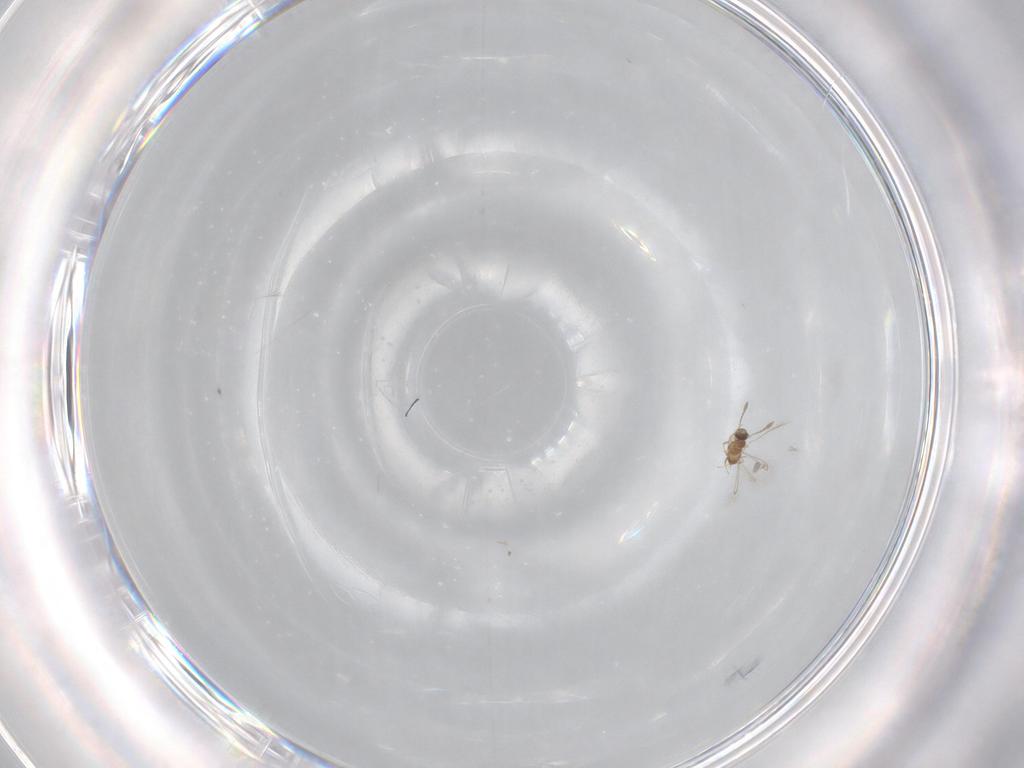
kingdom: Animalia
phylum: Arthropoda
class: Insecta
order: Hymenoptera
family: Mymaridae
